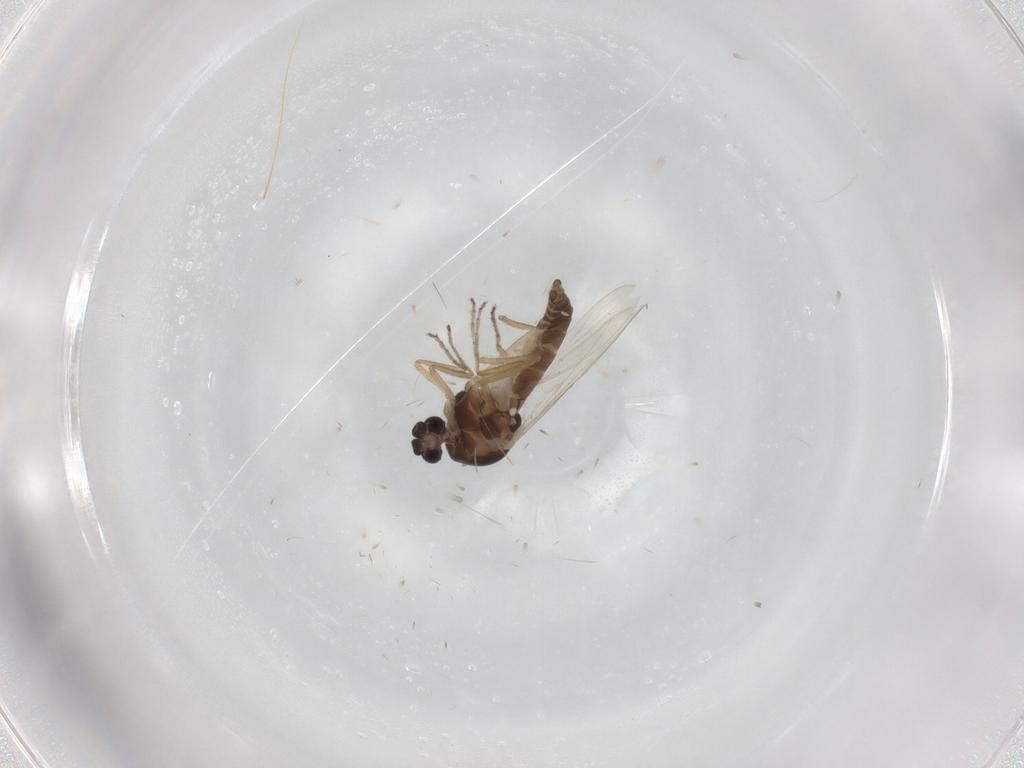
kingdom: Animalia
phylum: Arthropoda
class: Insecta
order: Diptera
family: Ceratopogonidae
